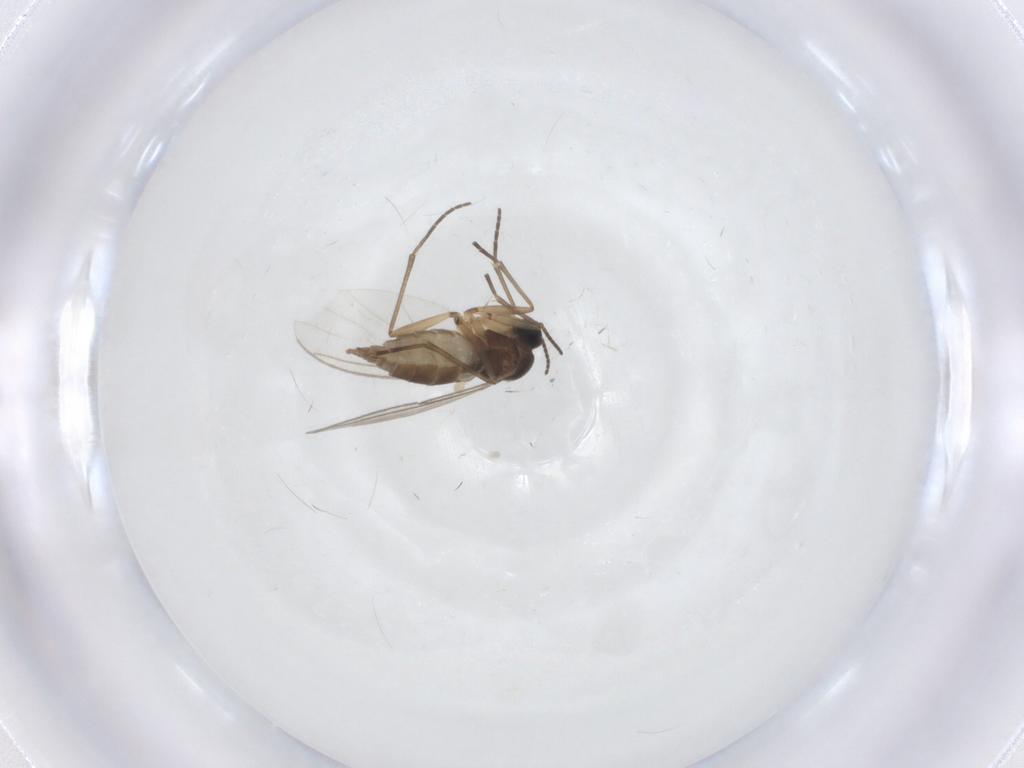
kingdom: Animalia
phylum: Arthropoda
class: Insecta
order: Diptera
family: Sciaridae
